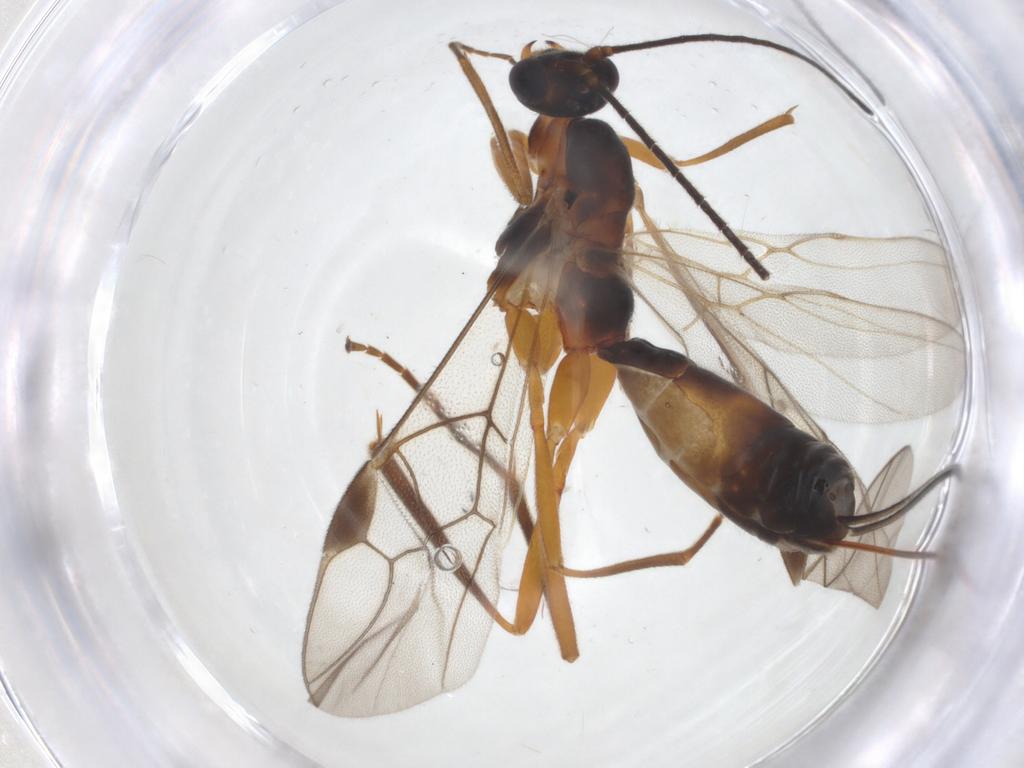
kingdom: Animalia
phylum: Arthropoda
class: Insecta
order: Hymenoptera
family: Braconidae
